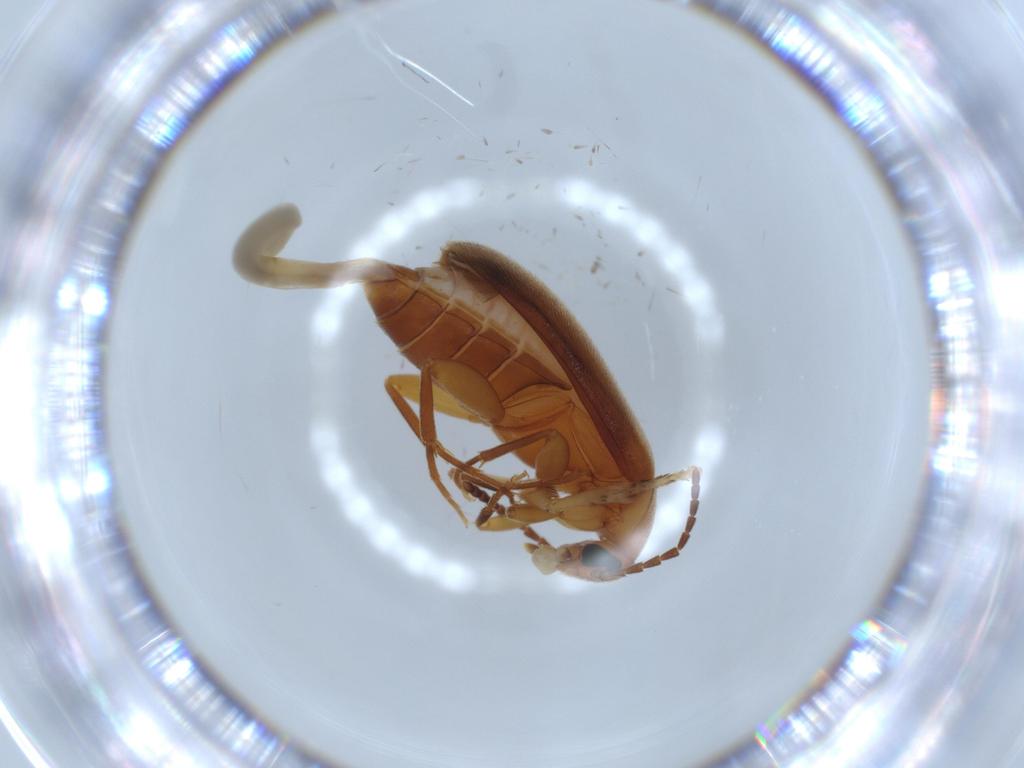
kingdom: Animalia
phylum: Arthropoda
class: Insecta
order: Coleoptera
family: Scraptiidae
